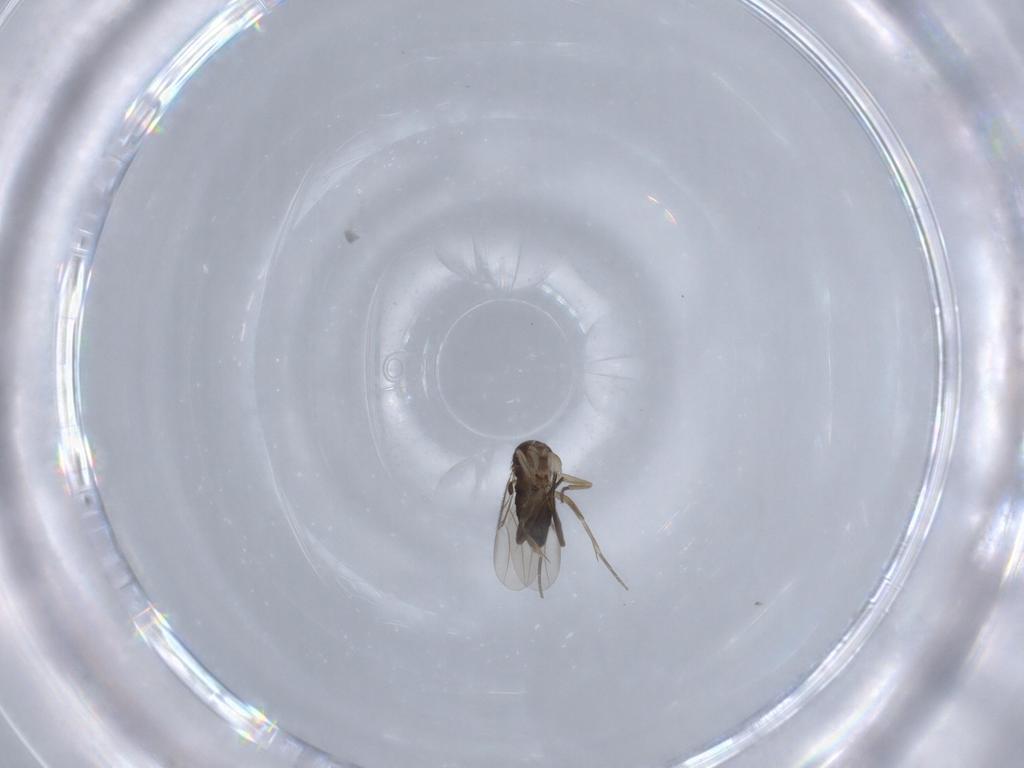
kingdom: Animalia
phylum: Arthropoda
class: Insecta
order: Diptera
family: Phoridae
